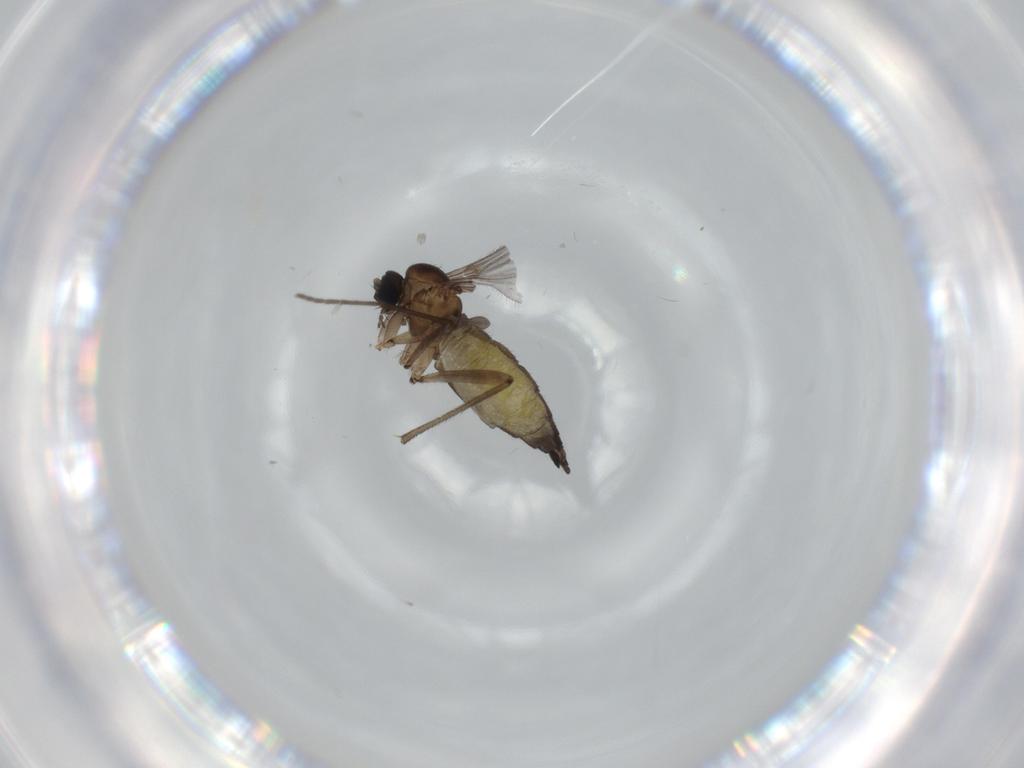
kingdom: Animalia
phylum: Arthropoda
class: Insecta
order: Diptera
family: Sciaridae
